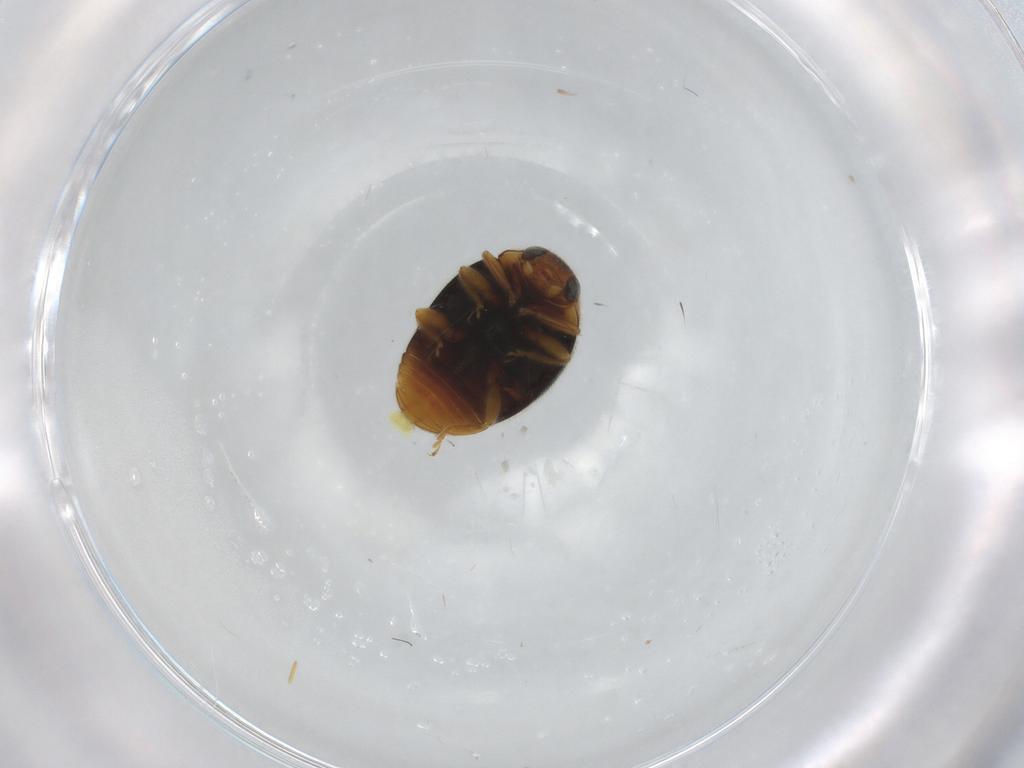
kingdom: Animalia
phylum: Arthropoda
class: Insecta
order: Coleoptera
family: Coccinellidae
